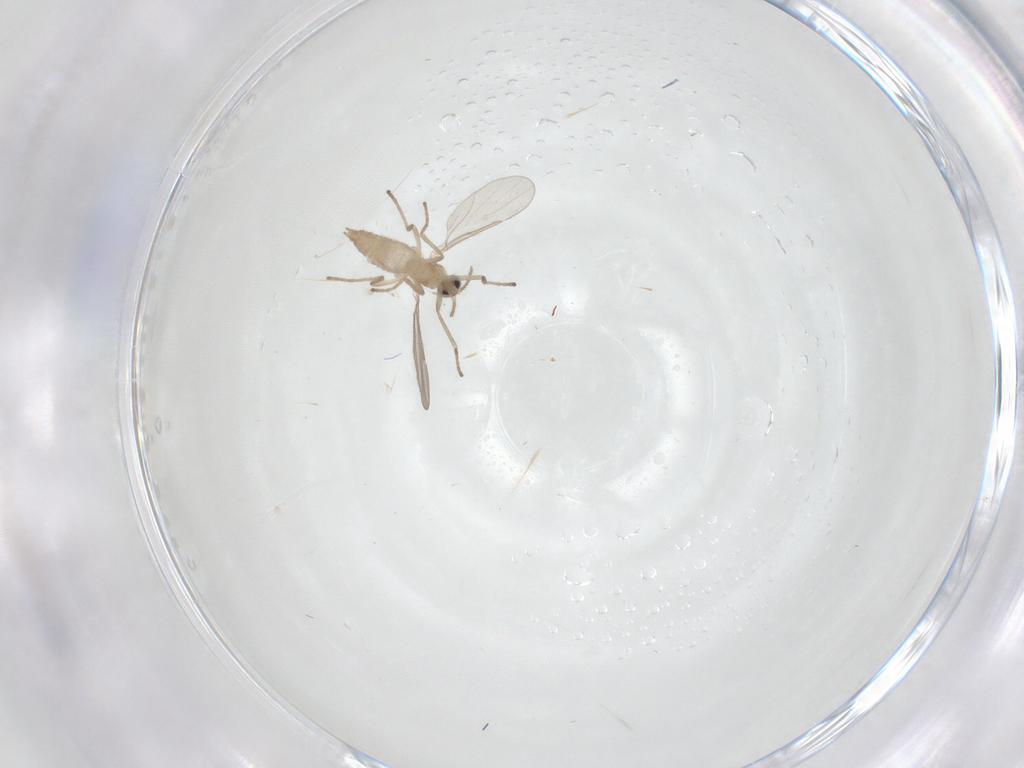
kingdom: Animalia
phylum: Arthropoda
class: Insecta
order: Diptera
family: Cecidomyiidae
